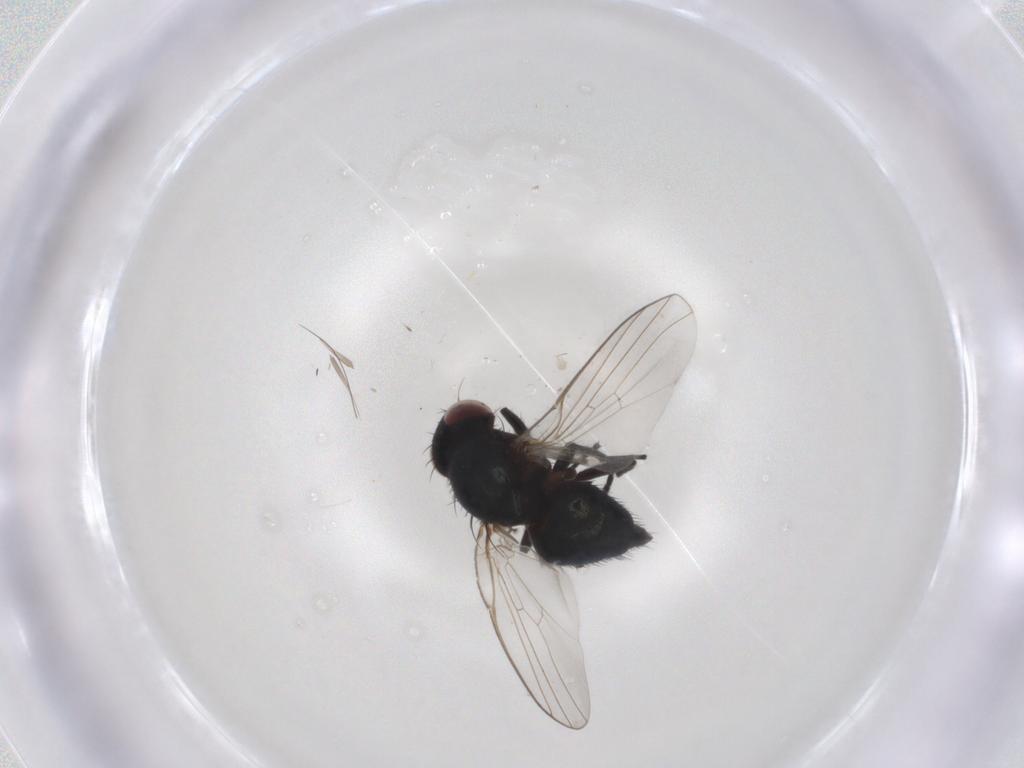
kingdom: Animalia
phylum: Arthropoda
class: Insecta
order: Diptera
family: Agromyzidae
